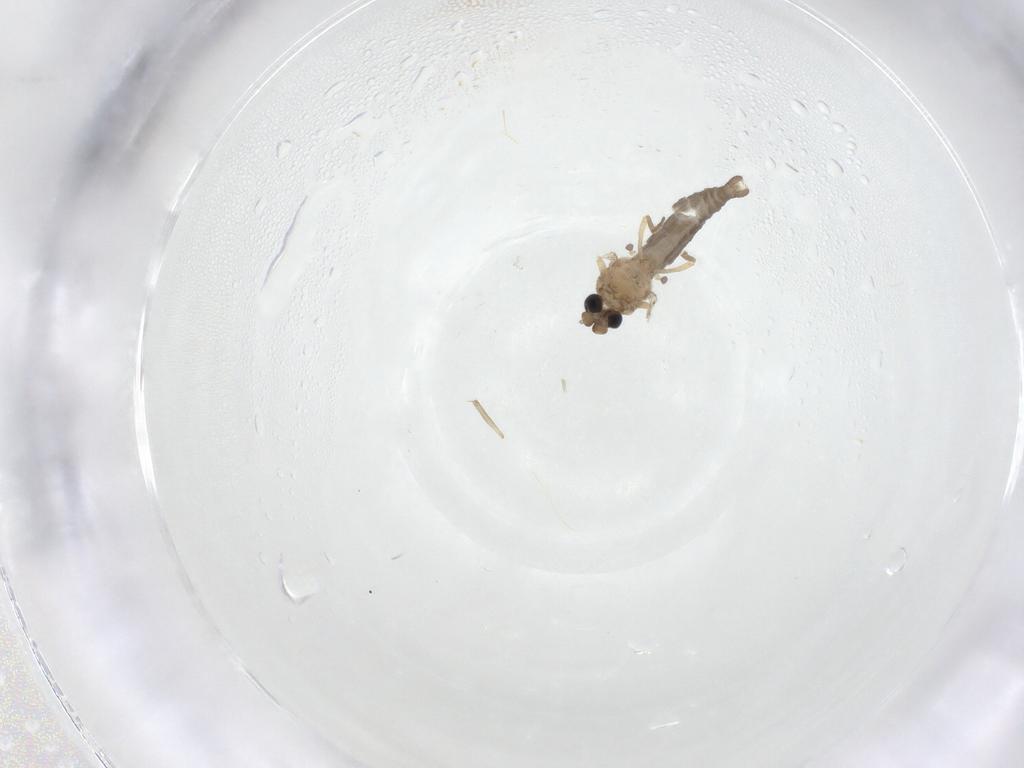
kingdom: Animalia
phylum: Arthropoda
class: Insecta
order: Diptera
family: Ceratopogonidae
